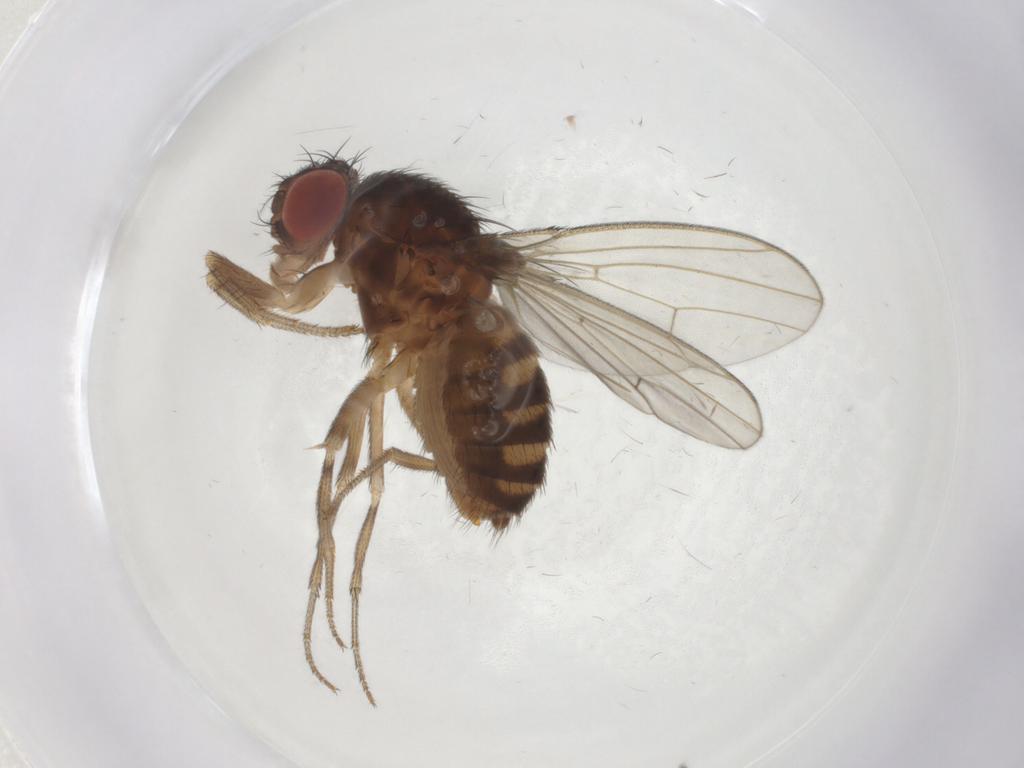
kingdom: Animalia
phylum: Arthropoda
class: Insecta
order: Diptera
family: Drosophilidae
